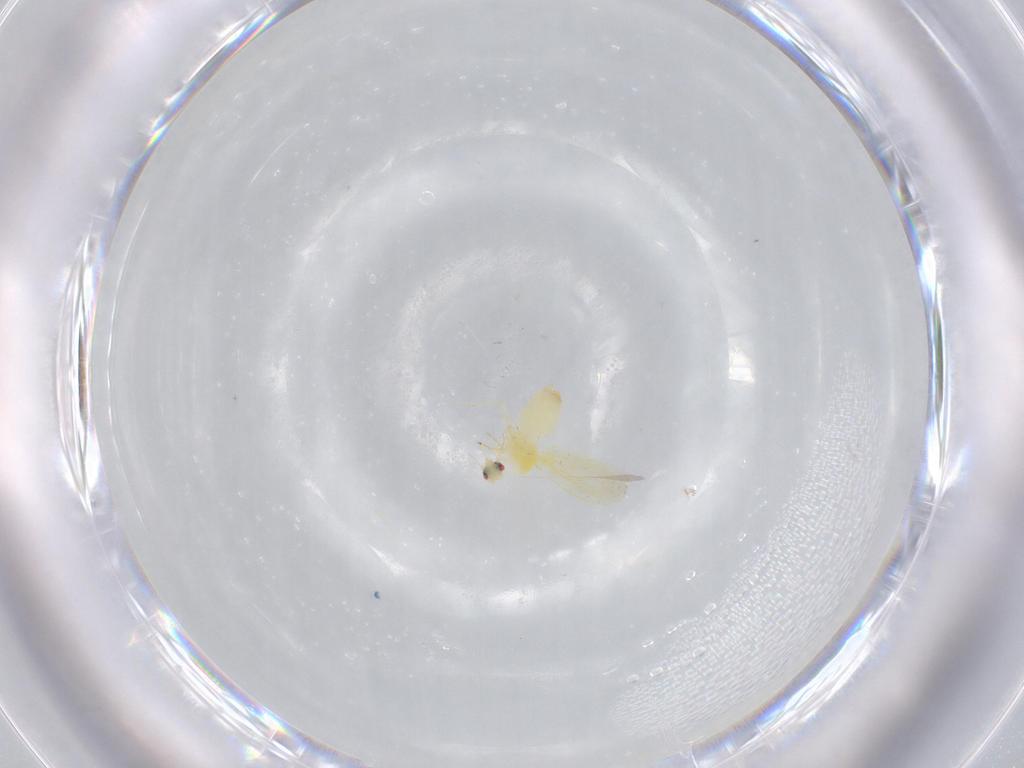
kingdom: Animalia
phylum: Arthropoda
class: Insecta
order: Hemiptera
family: Aleyrodidae
